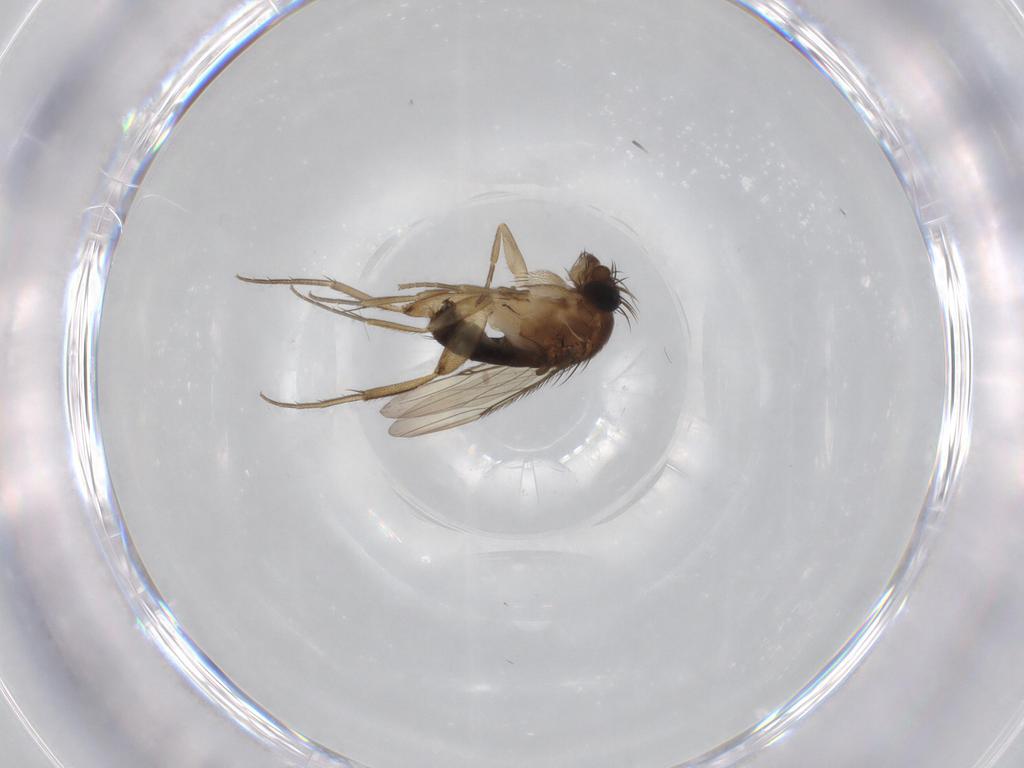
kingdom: Animalia
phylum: Arthropoda
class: Insecta
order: Diptera
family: Phoridae
